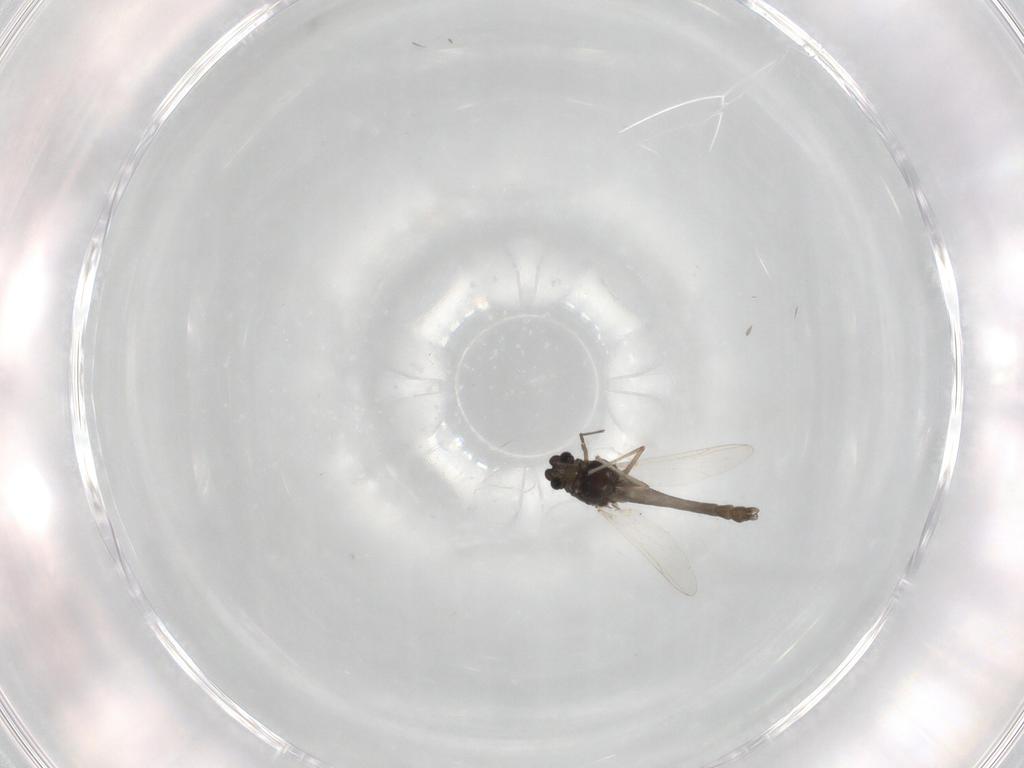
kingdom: Animalia
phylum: Arthropoda
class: Insecta
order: Diptera
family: Chironomidae
